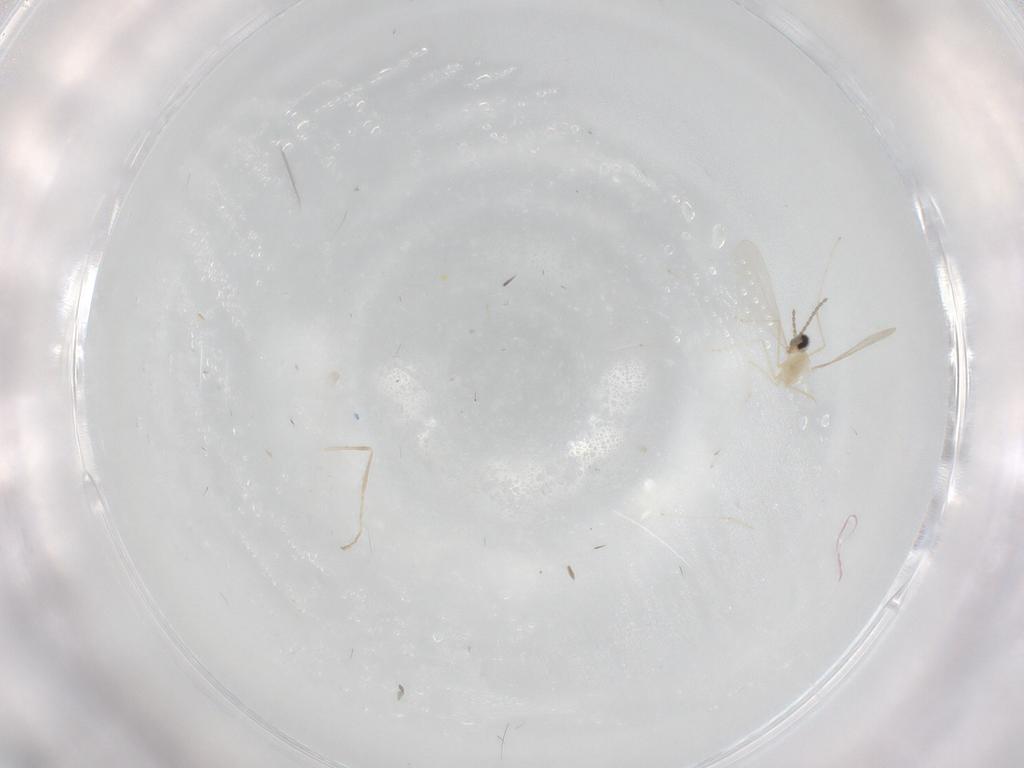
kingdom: Animalia
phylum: Arthropoda
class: Insecta
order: Diptera
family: Cecidomyiidae
